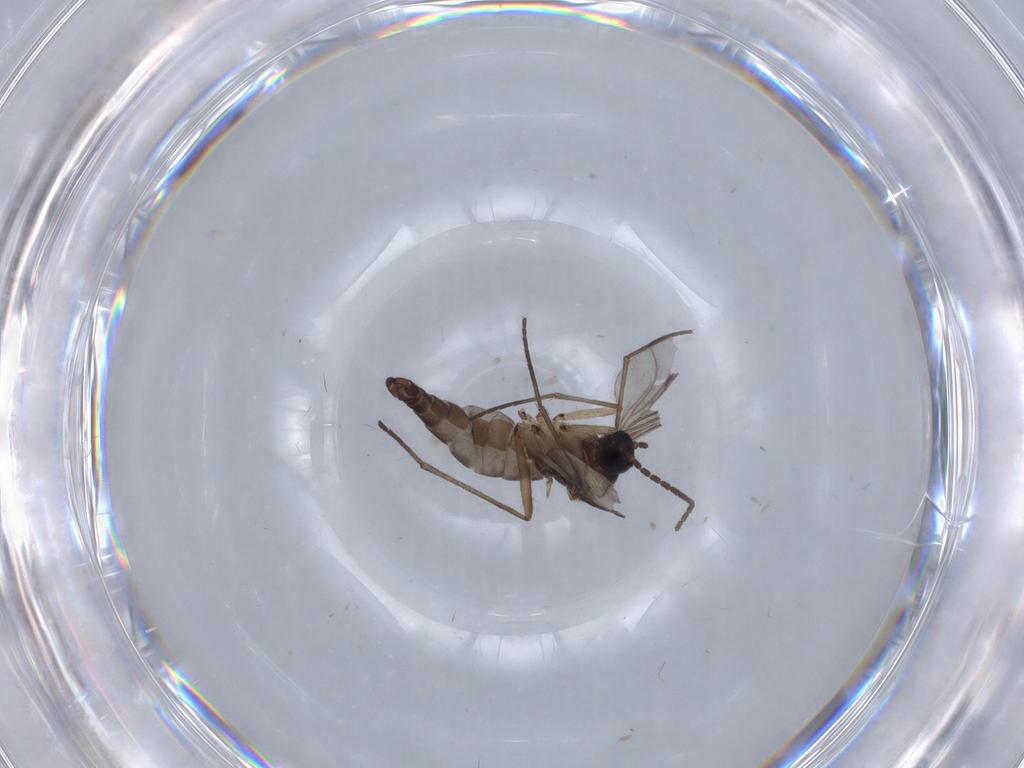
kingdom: Animalia
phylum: Arthropoda
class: Insecta
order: Diptera
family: Sciaridae
